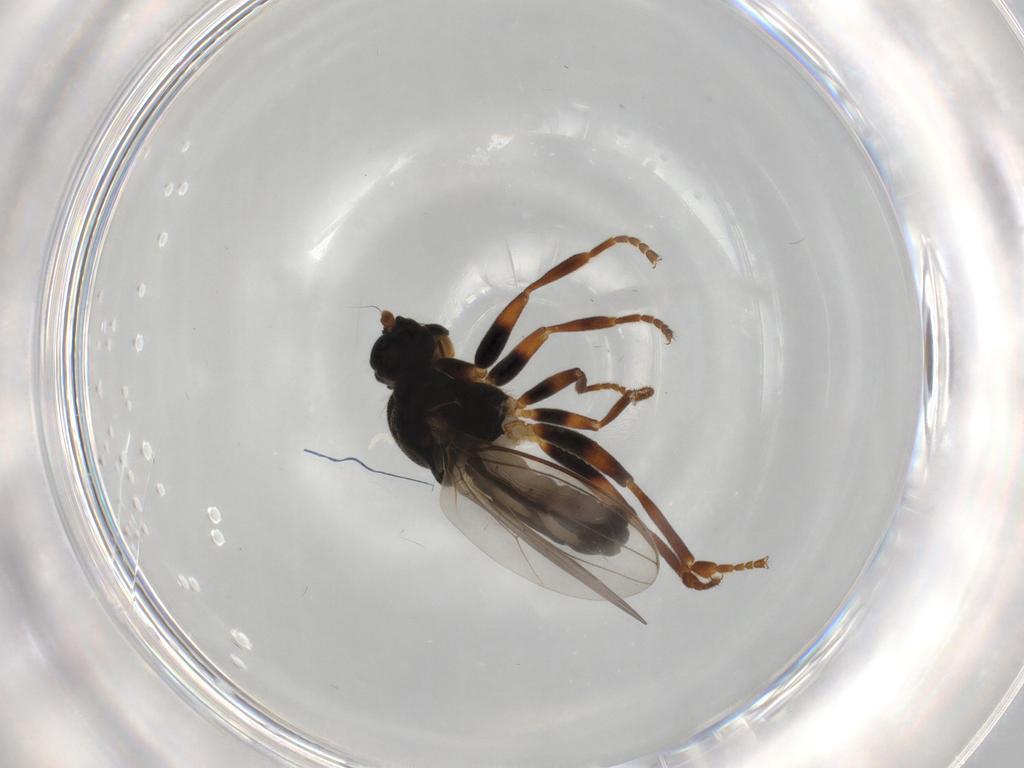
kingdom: Animalia
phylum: Arthropoda
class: Insecta
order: Diptera
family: Sphaeroceridae
